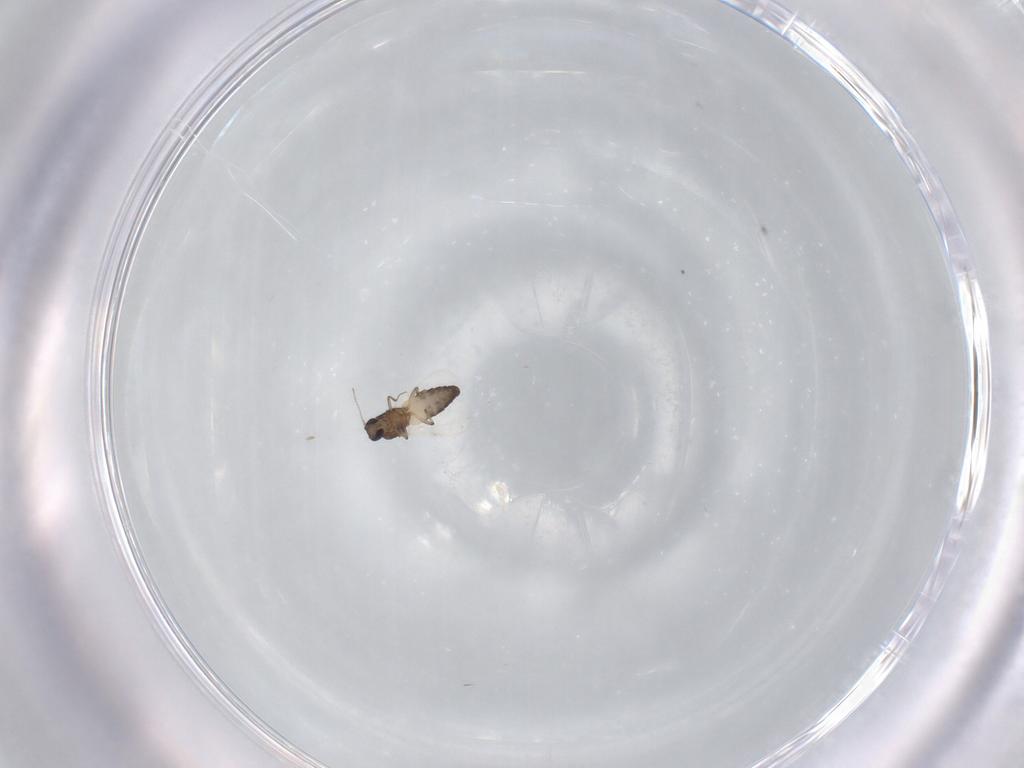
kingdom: Animalia
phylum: Arthropoda
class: Insecta
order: Diptera
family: Ceratopogonidae
